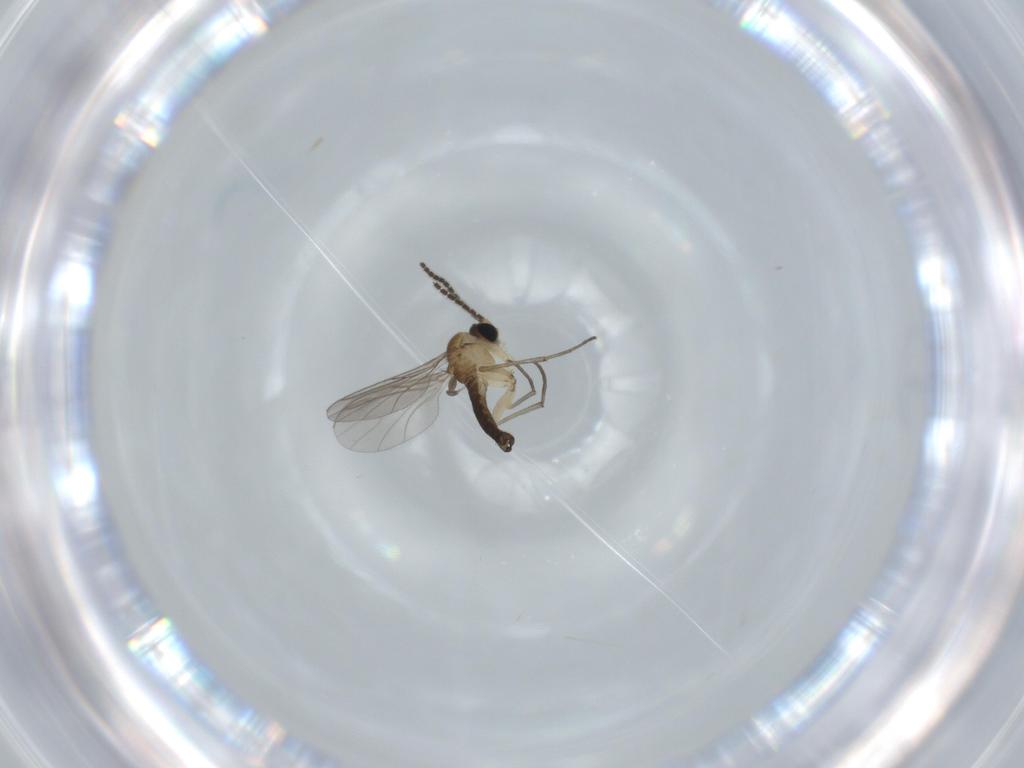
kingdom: Animalia
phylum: Arthropoda
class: Insecta
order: Diptera
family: Sciaridae
